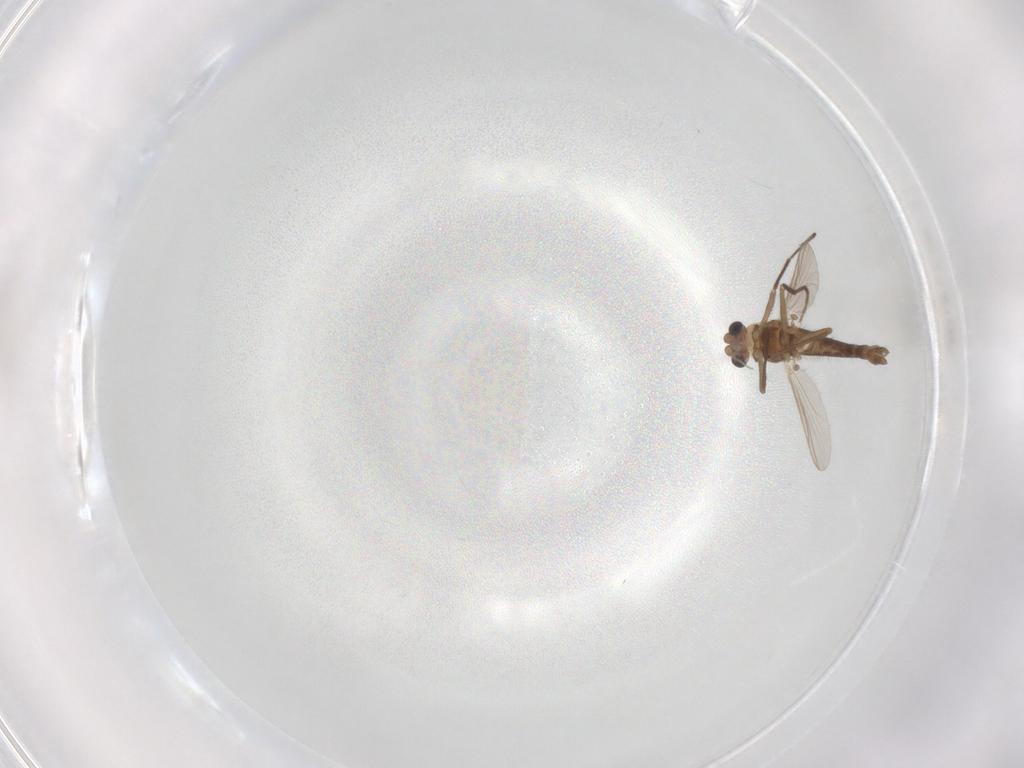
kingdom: Animalia
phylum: Arthropoda
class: Insecta
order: Diptera
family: Chironomidae
